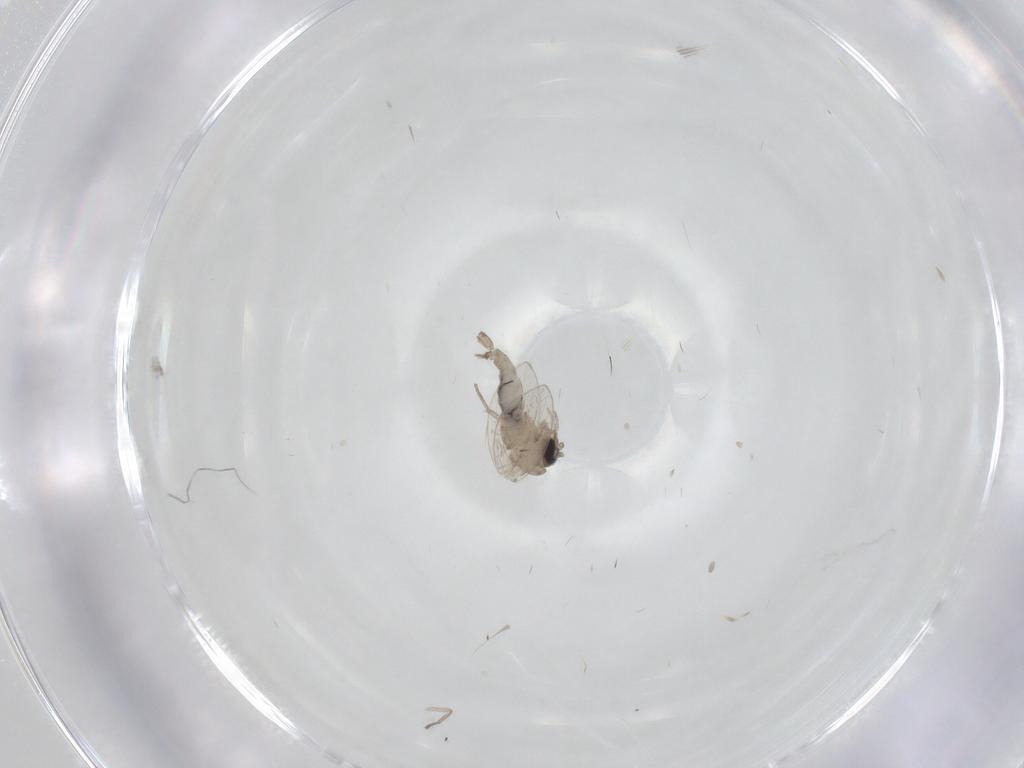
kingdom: Animalia
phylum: Arthropoda
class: Insecta
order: Diptera
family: Psychodidae
